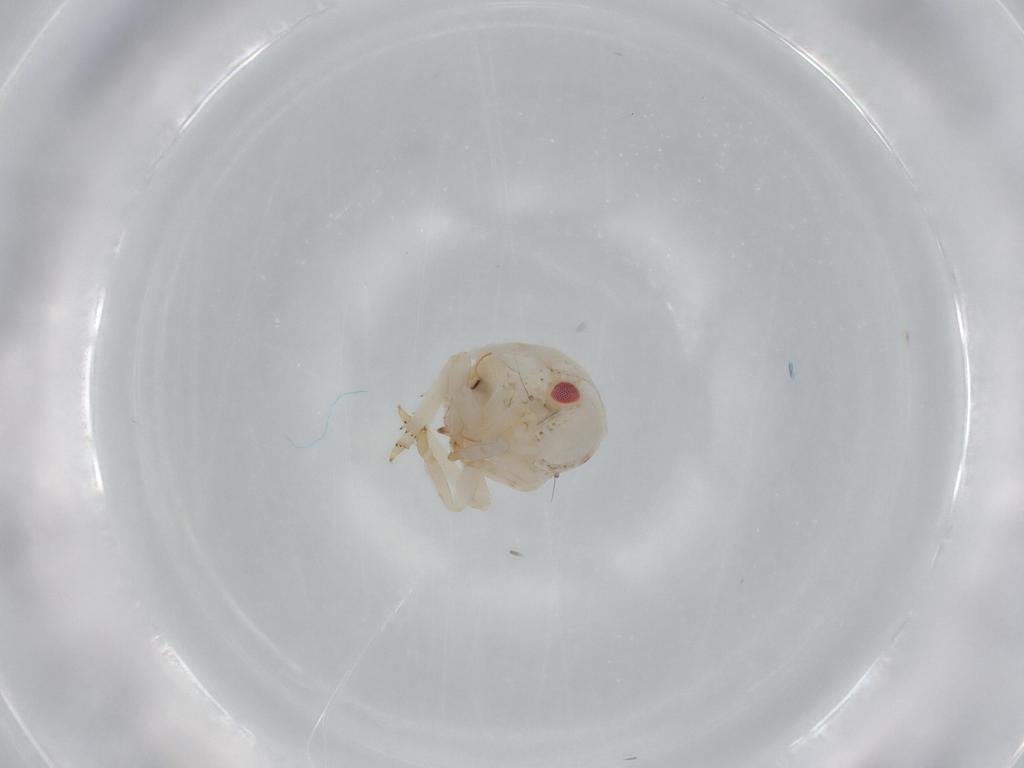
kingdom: Animalia
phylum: Arthropoda
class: Insecta
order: Hemiptera
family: Acanaloniidae
